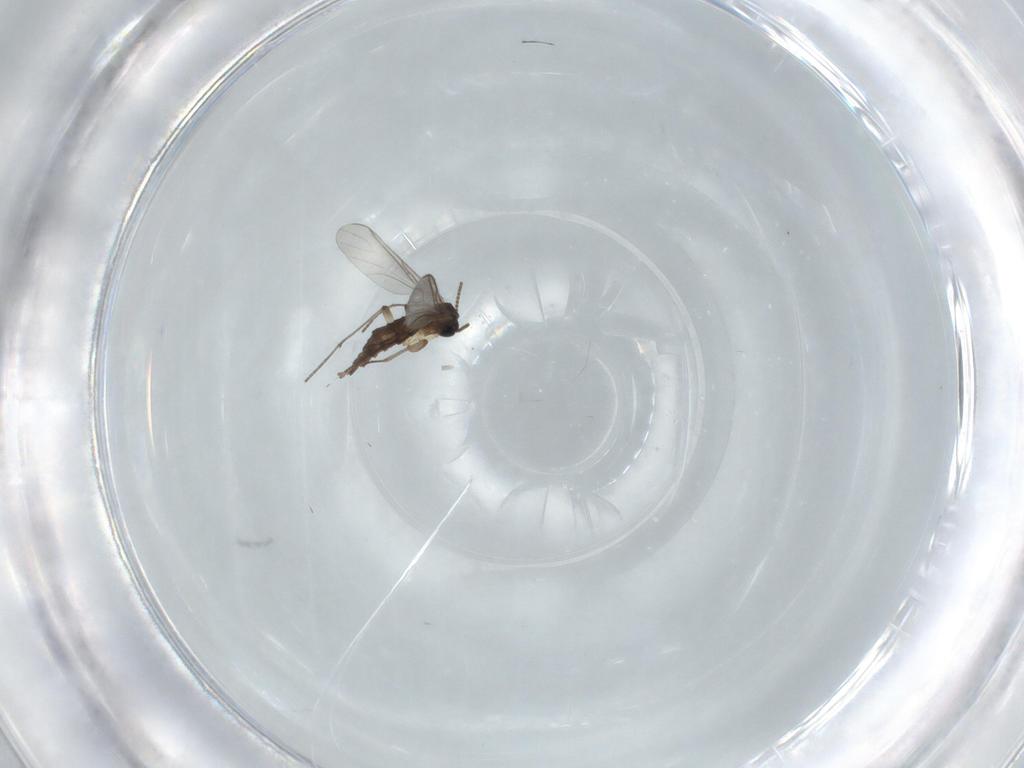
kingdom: Animalia
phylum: Arthropoda
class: Insecta
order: Diptera
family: Anthomyiidae
